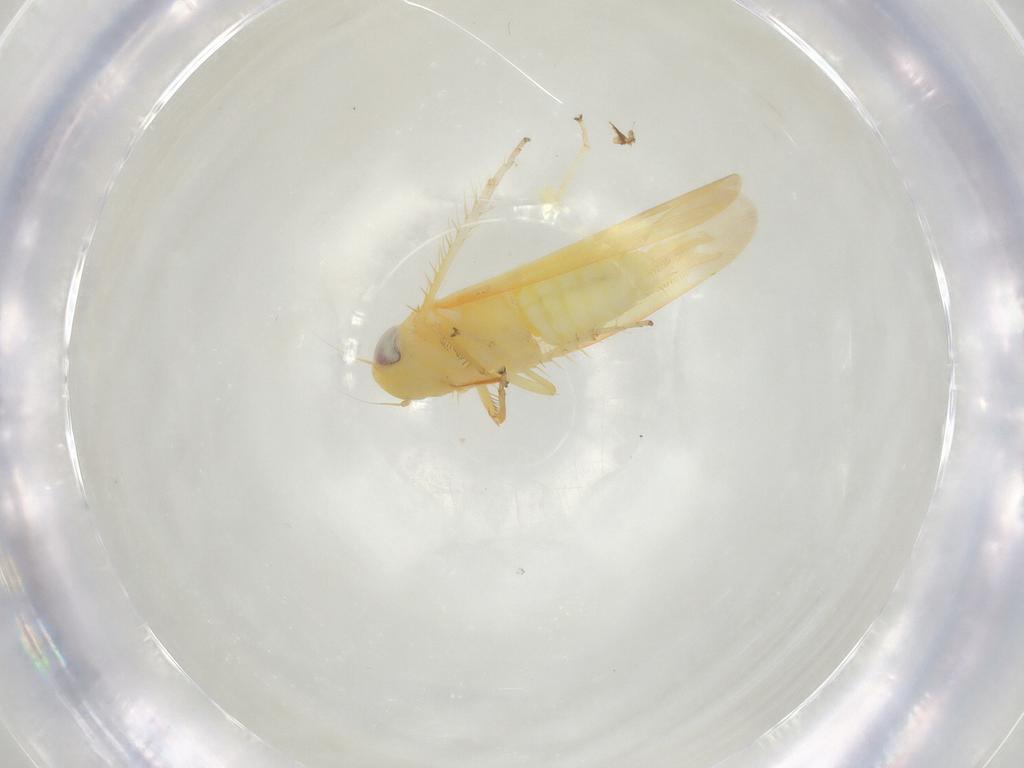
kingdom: Animalia
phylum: Arthropoda
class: Insecta
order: Hemiptera
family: Cicadellidae
